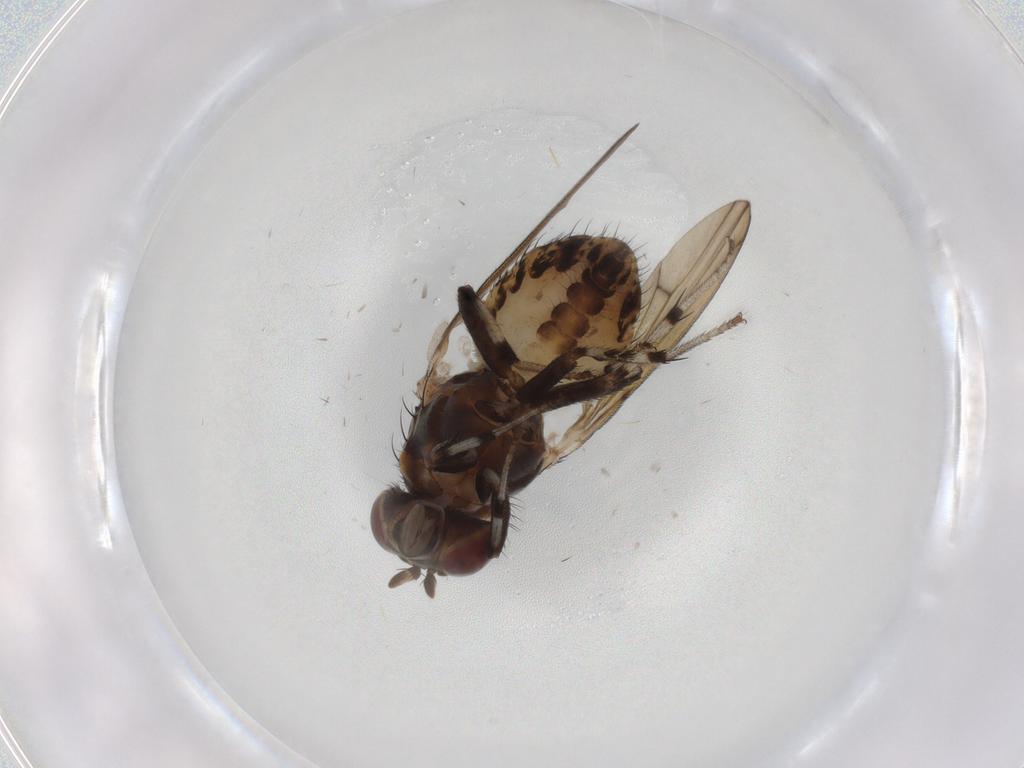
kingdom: Animalia
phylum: Arthropoda
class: Insecta
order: Diptera
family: Lauxaniidae
